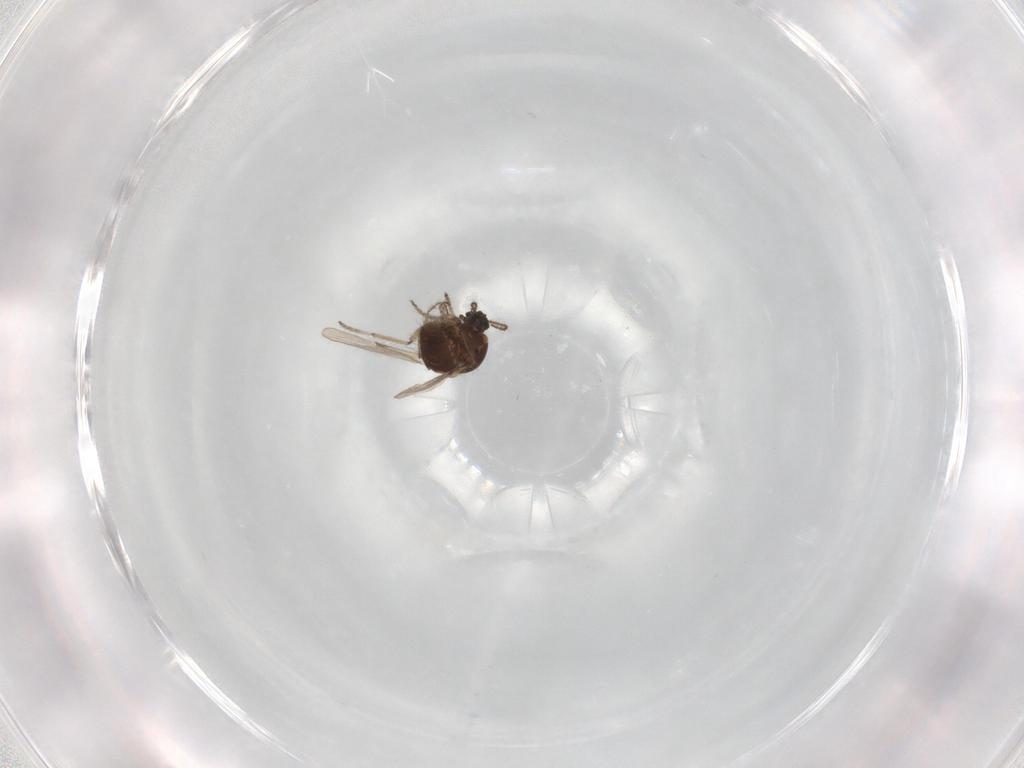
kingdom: Animalia
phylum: Arthropoda
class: Insecta
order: Diptera
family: Chironomidae
